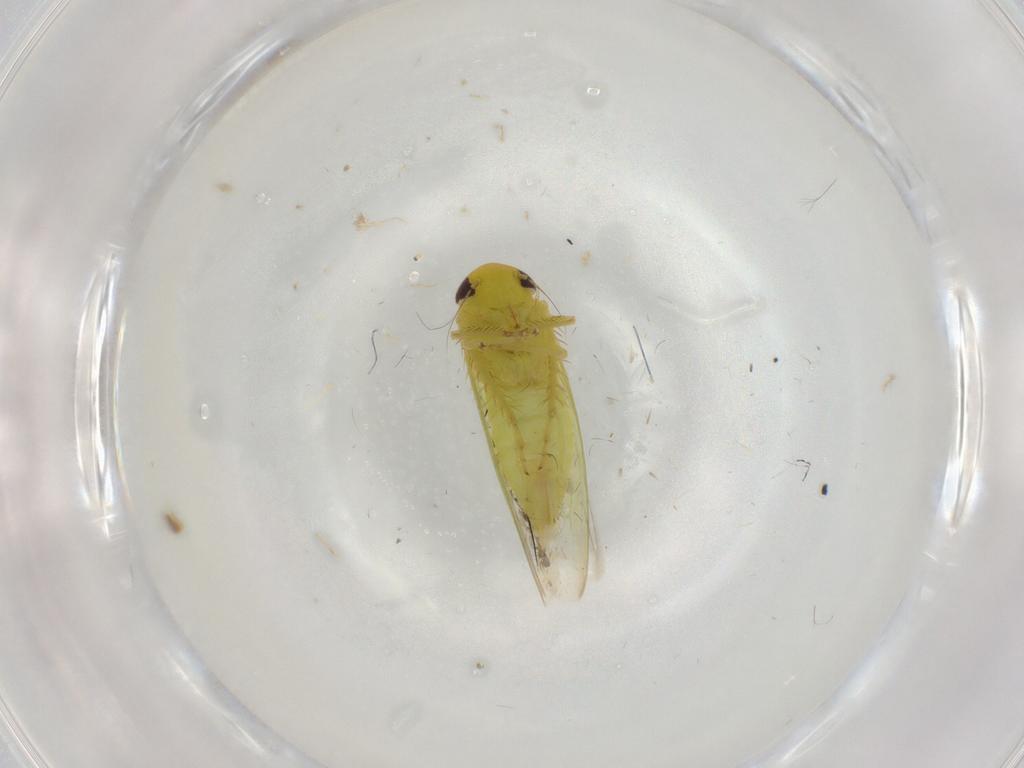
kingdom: Animalia
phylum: Arthropoda
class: Insecta
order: Hemiptera
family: Cicadellidae
